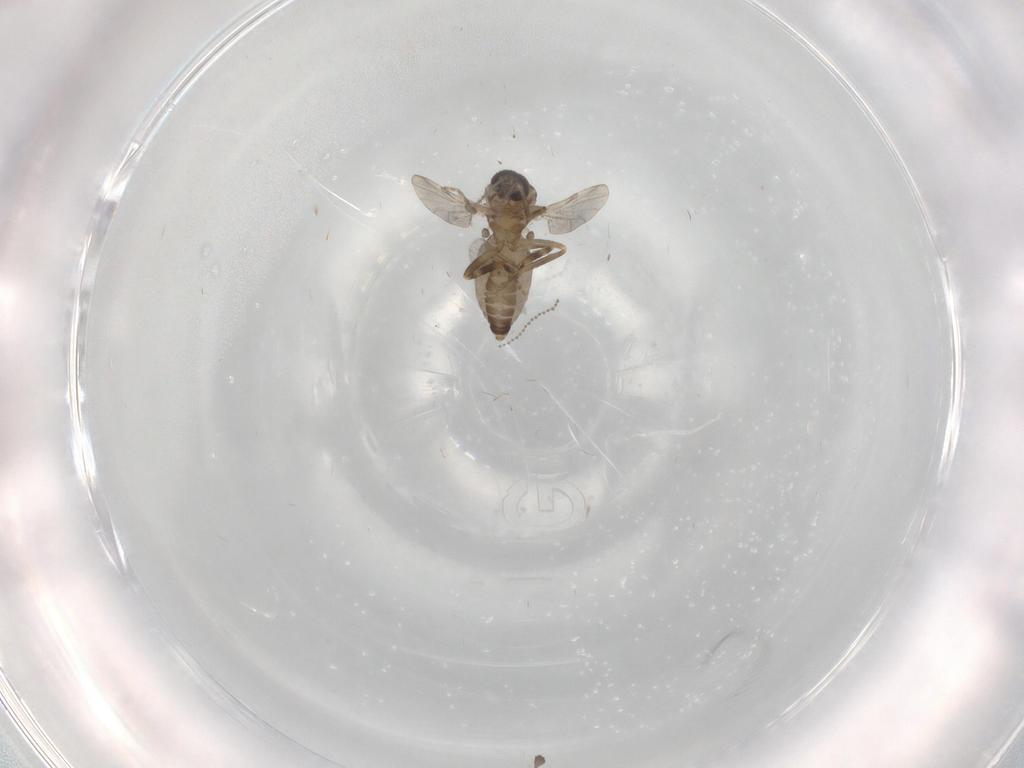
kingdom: Animalia
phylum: Arthropoda
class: Insecta
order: Diptera
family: Ceratopogonidae
